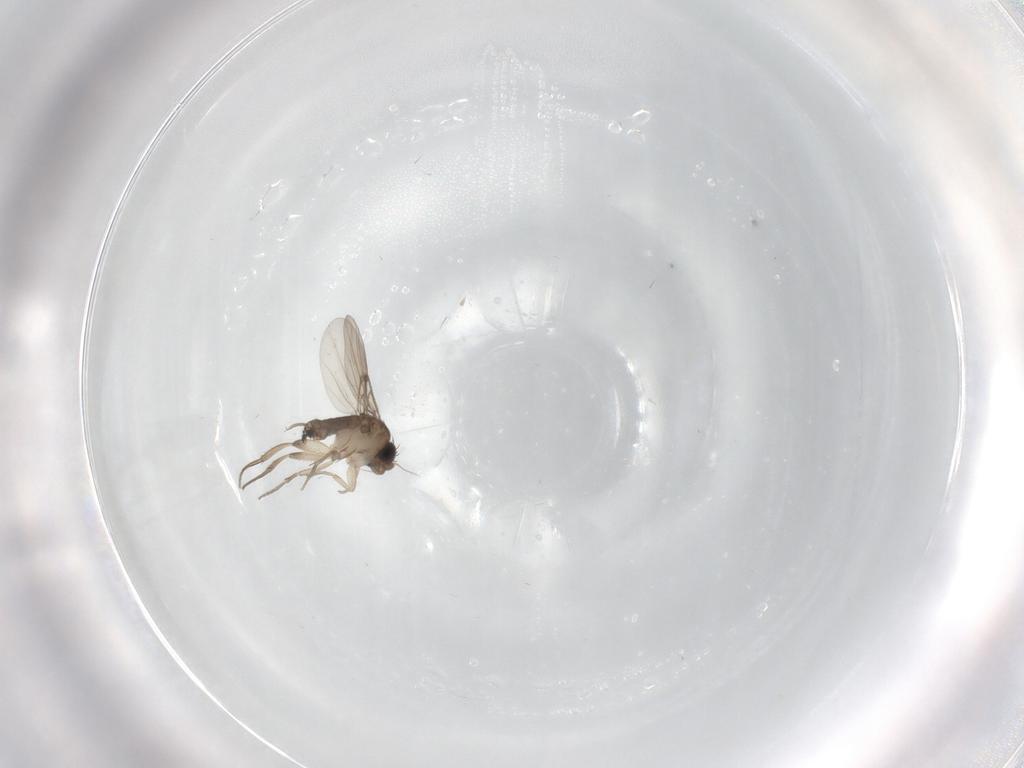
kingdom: Animalia
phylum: Arthropoda
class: Insecta
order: Diptera
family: Phoridae
